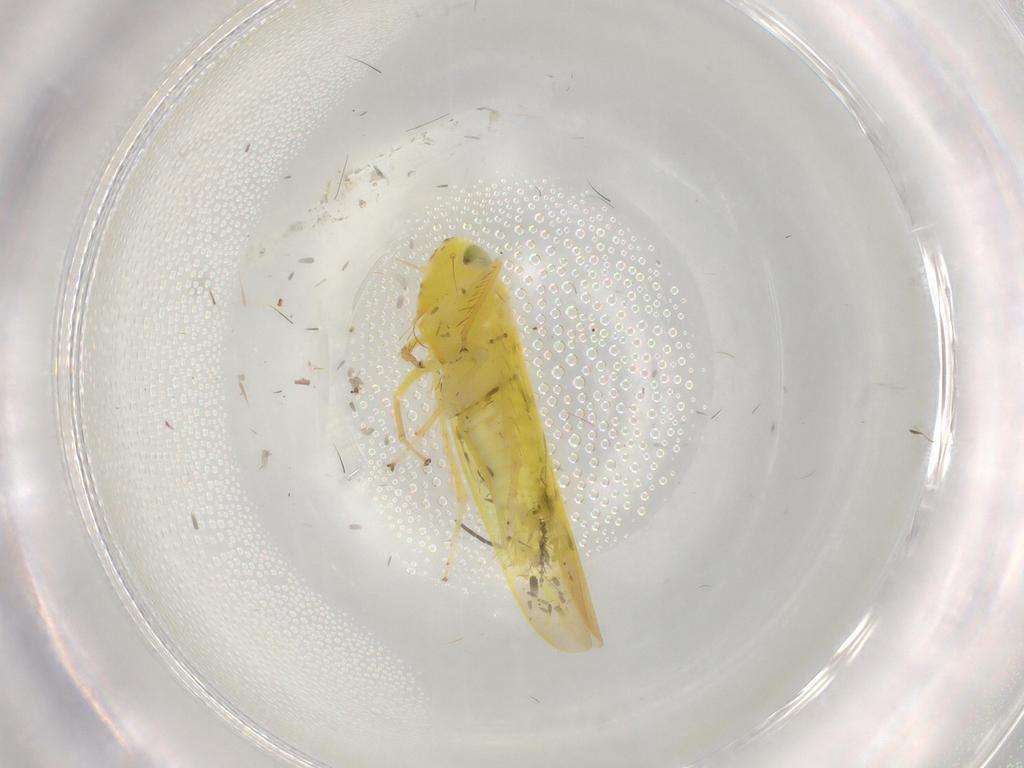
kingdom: Animalia
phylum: Arthropoda
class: Insecta
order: Hemiptera
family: Cicadellidae
